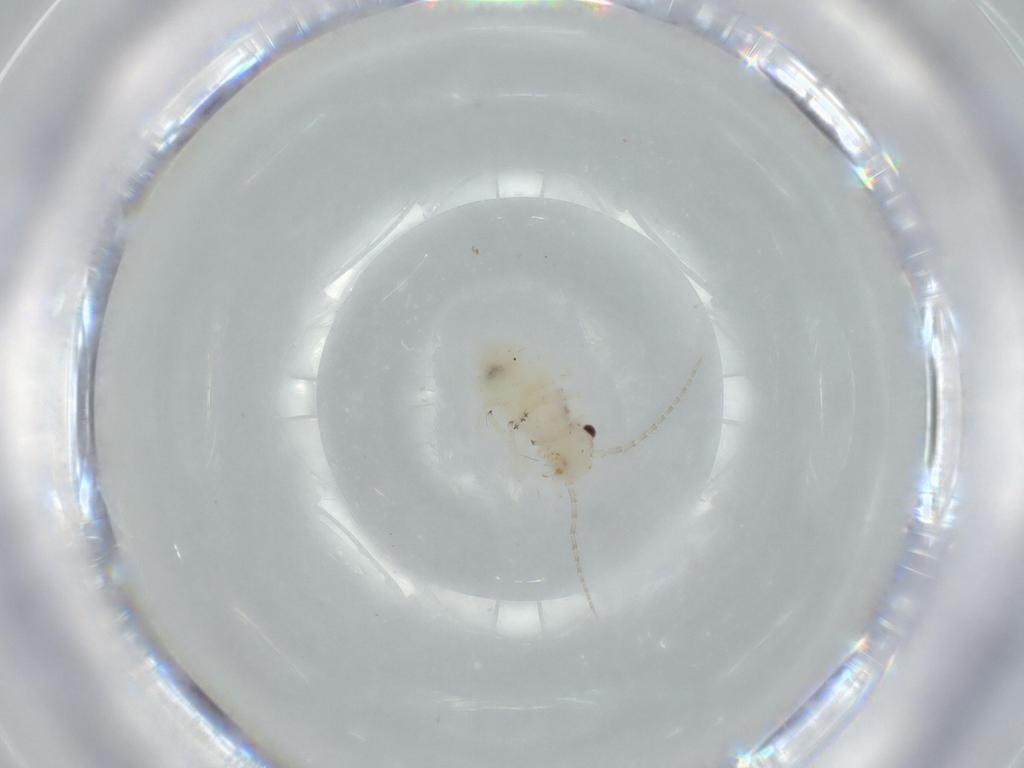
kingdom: Animalia
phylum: Arthropoda
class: Insecta
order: Psocodea
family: Amphipsocidae
